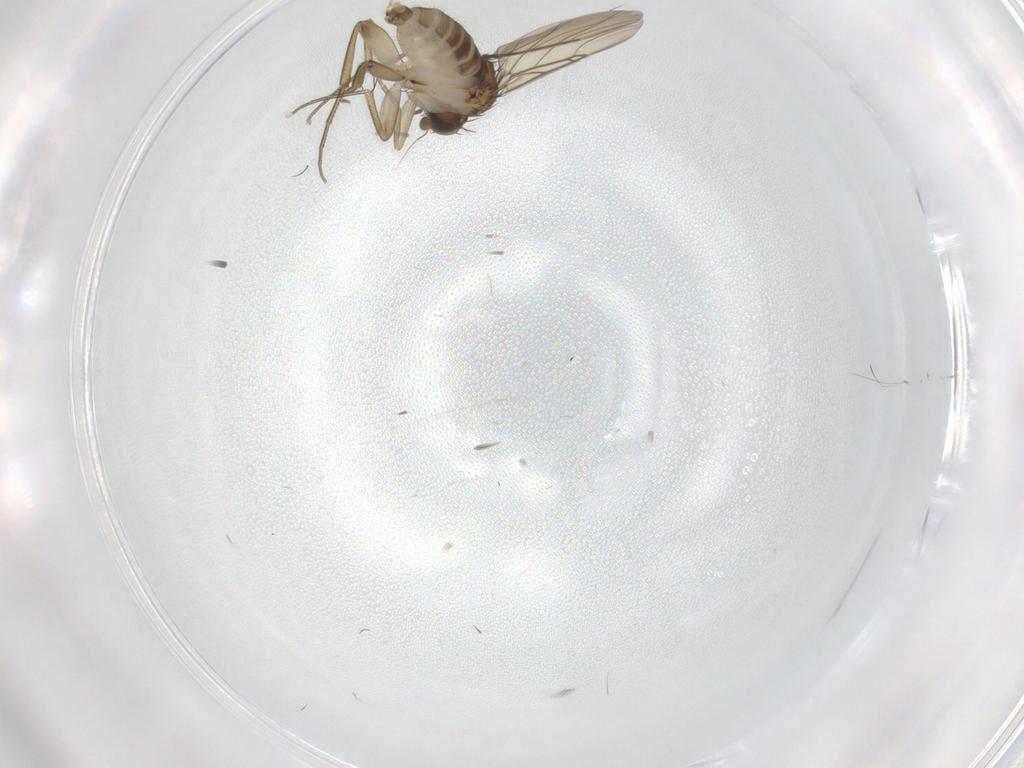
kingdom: Animalia
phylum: Arthropoda
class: Insecta
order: Diptera
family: Phoridae
